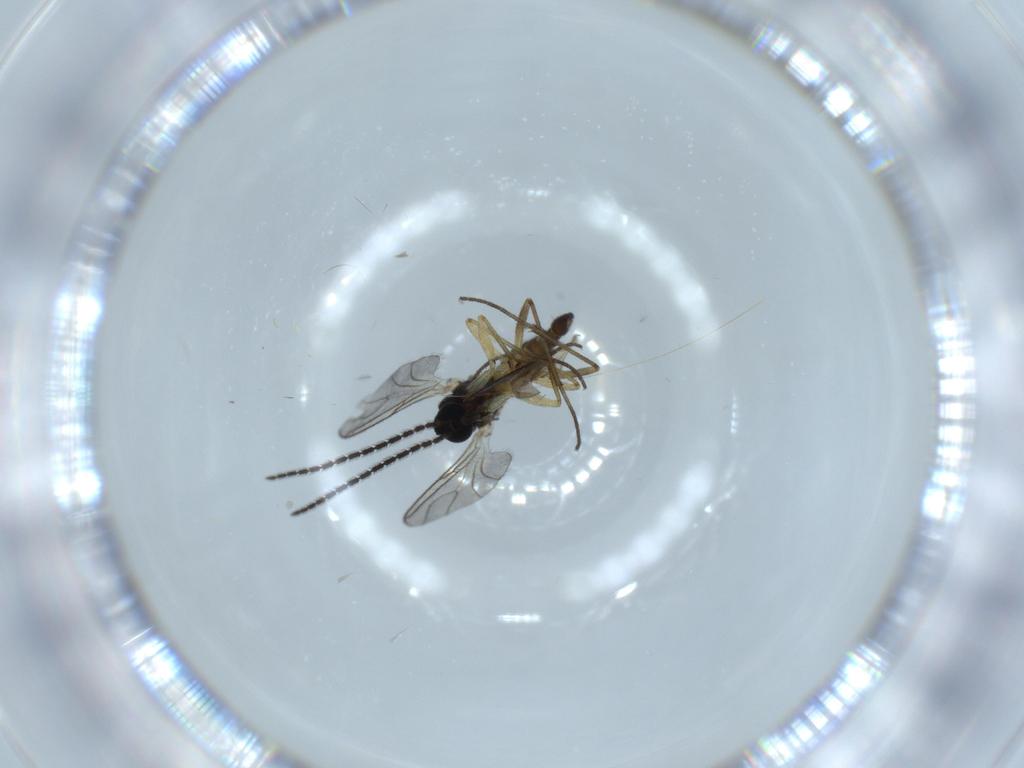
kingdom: Animalia
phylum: Arthropoda
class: Insecta
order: Diptera
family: Sciaridae
